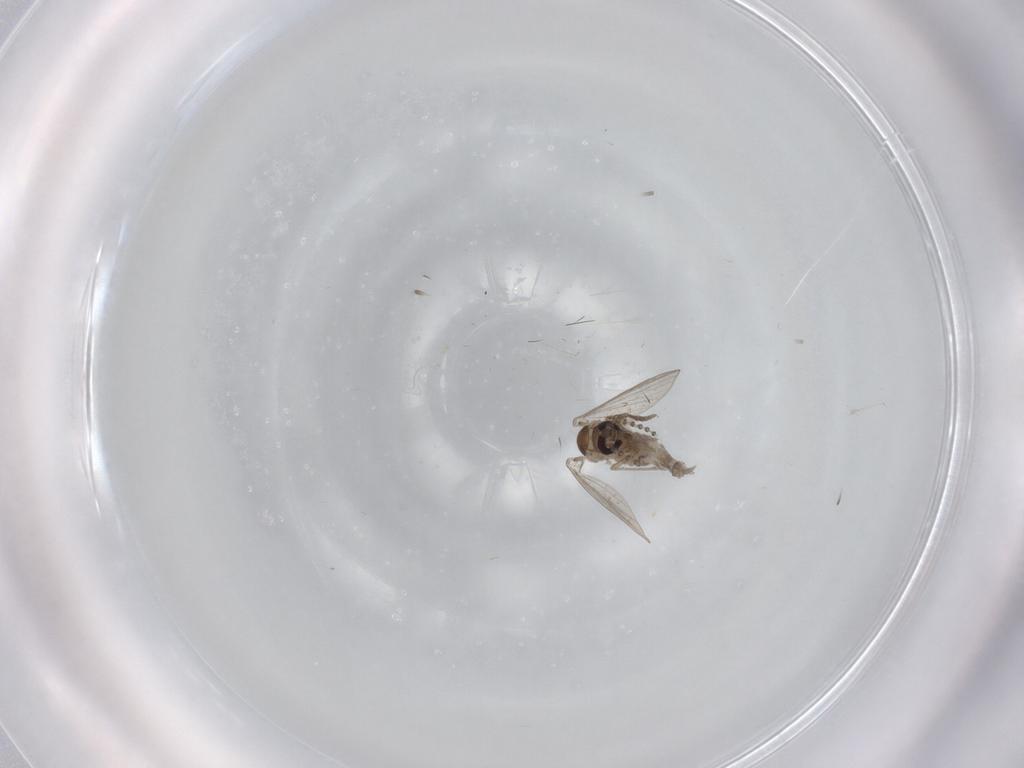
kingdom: Animalia
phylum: Arthropoda
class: Insecta
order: Diptera
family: Psychodidae
